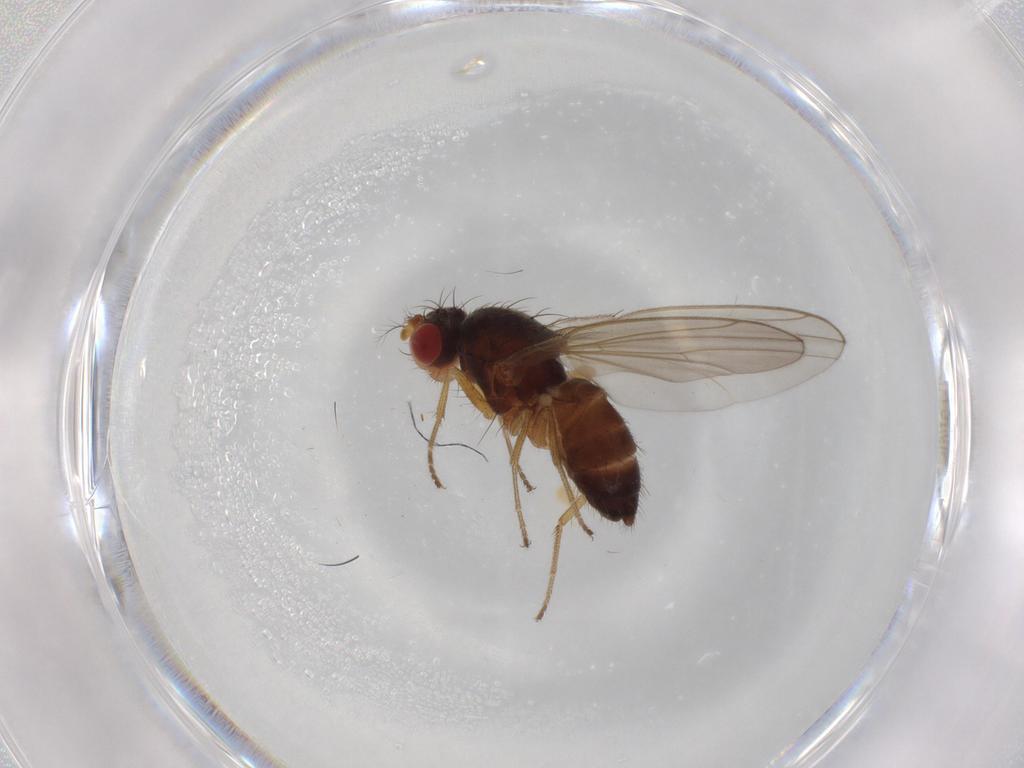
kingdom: Animalia
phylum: Arthropoda
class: Insecta
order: Diptera
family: Drosophilidae
